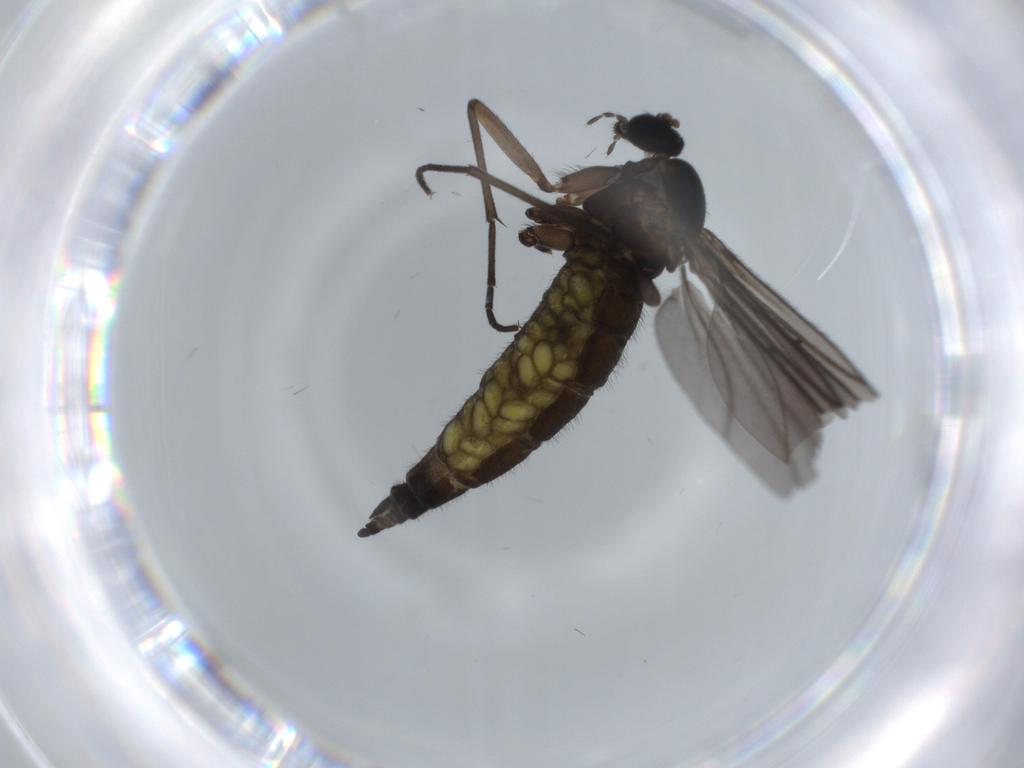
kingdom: Animalia
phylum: Arthropoda
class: Insecta
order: Diptera
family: Sciaridae
